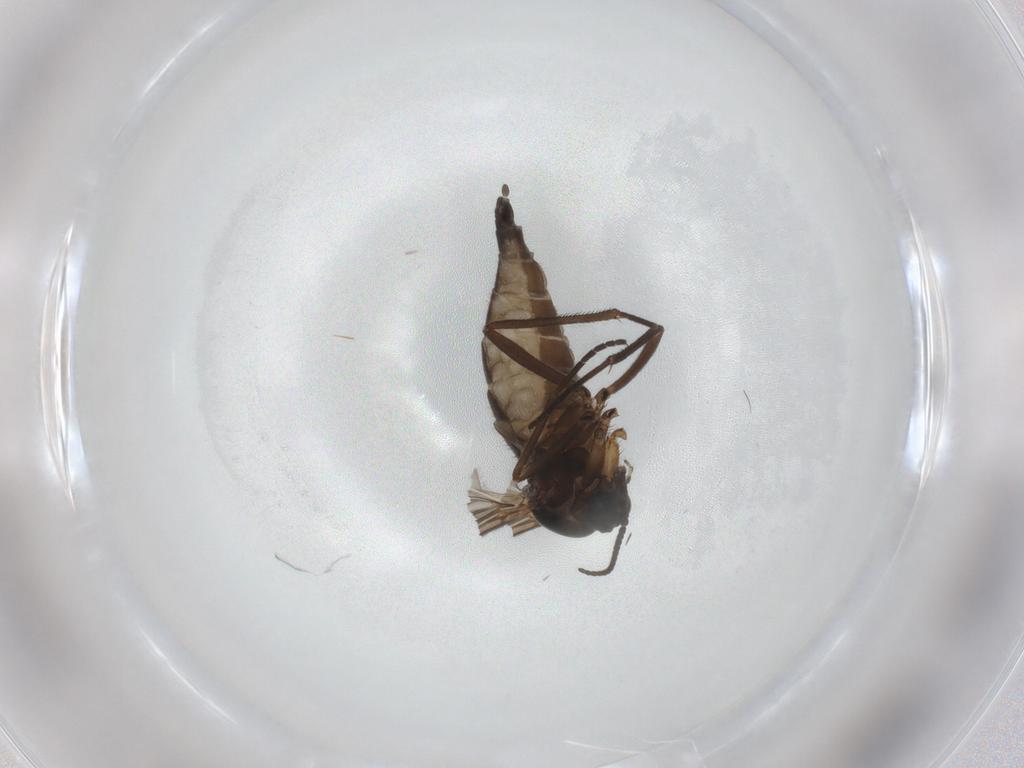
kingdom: Animalia
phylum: Arthropoda
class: Insecta
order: Diptera
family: Sciaridae
